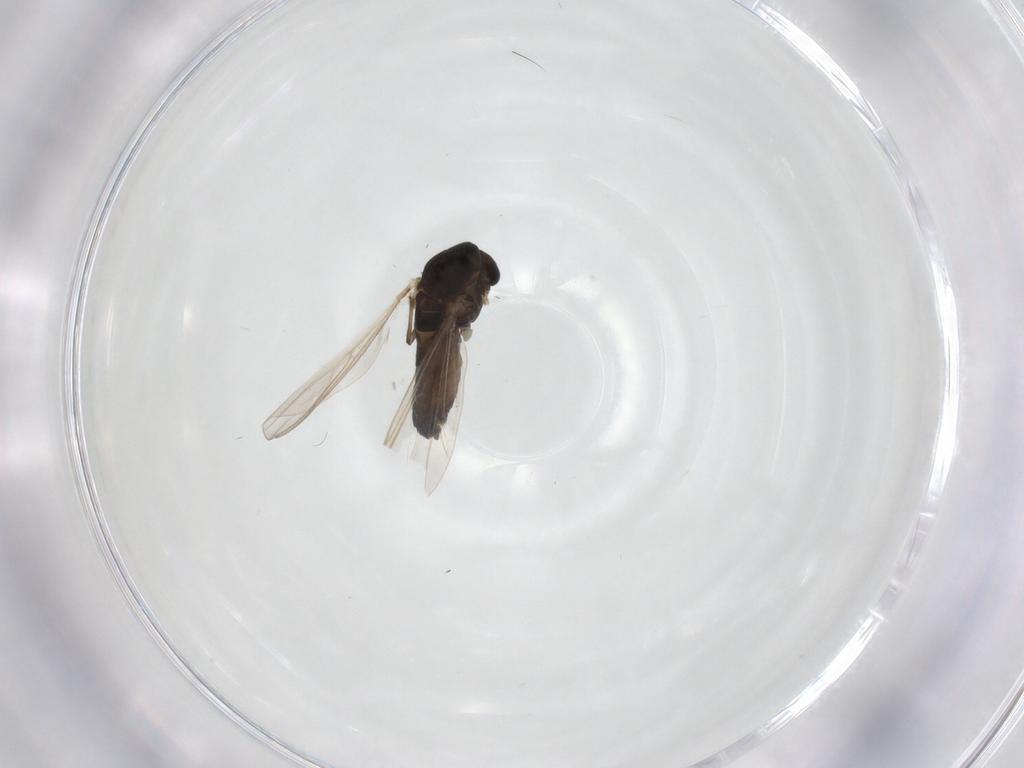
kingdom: Animalia
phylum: Arthropoda
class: Insecta
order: Diptera
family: Chironomidae
